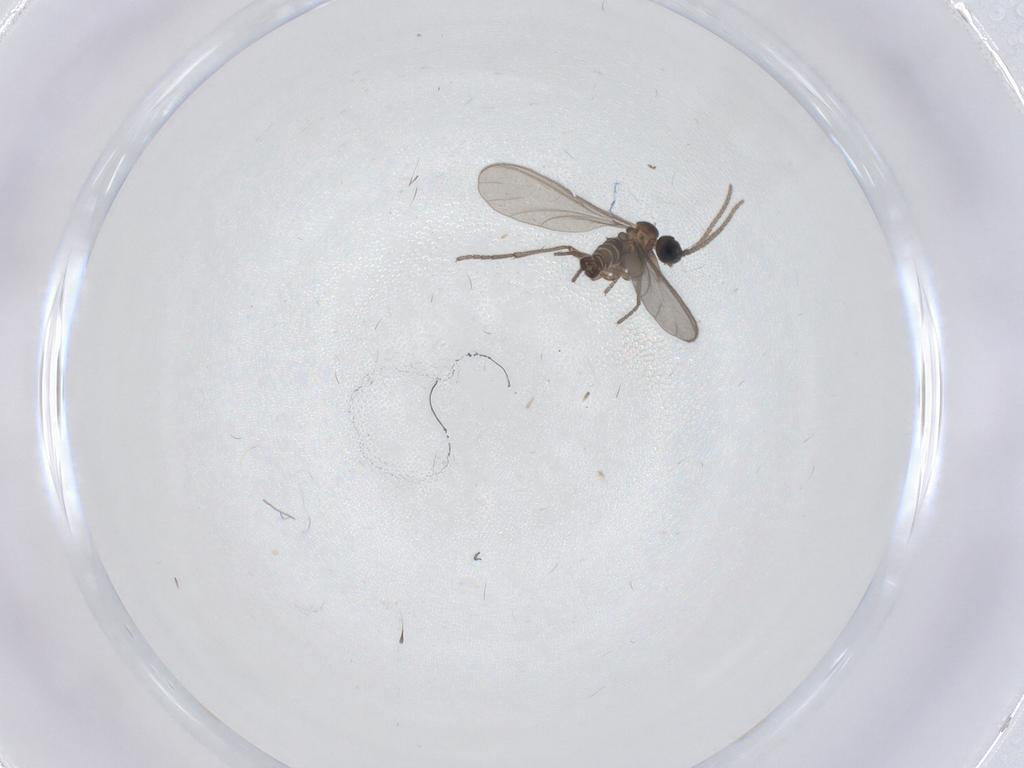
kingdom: Animalia
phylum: Arthropoda
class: Insecta
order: Diptera
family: Sciaridae
